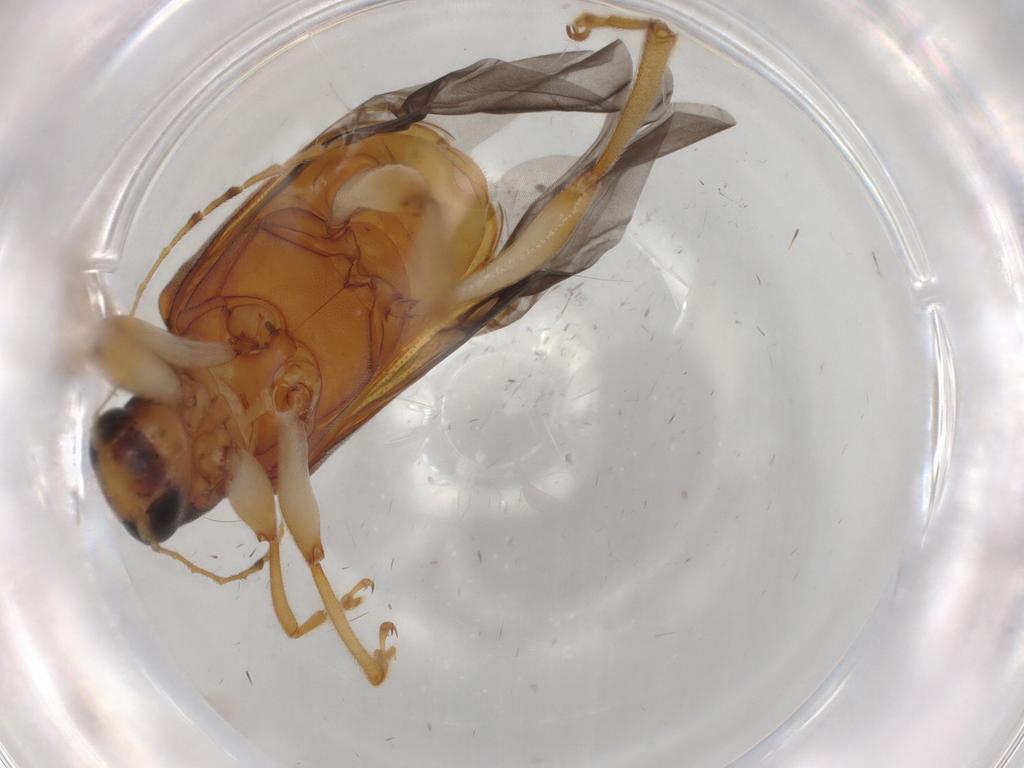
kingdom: Animalia
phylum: Arthropoda
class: Insecta
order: Coleoptera
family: Chrysomelidae
